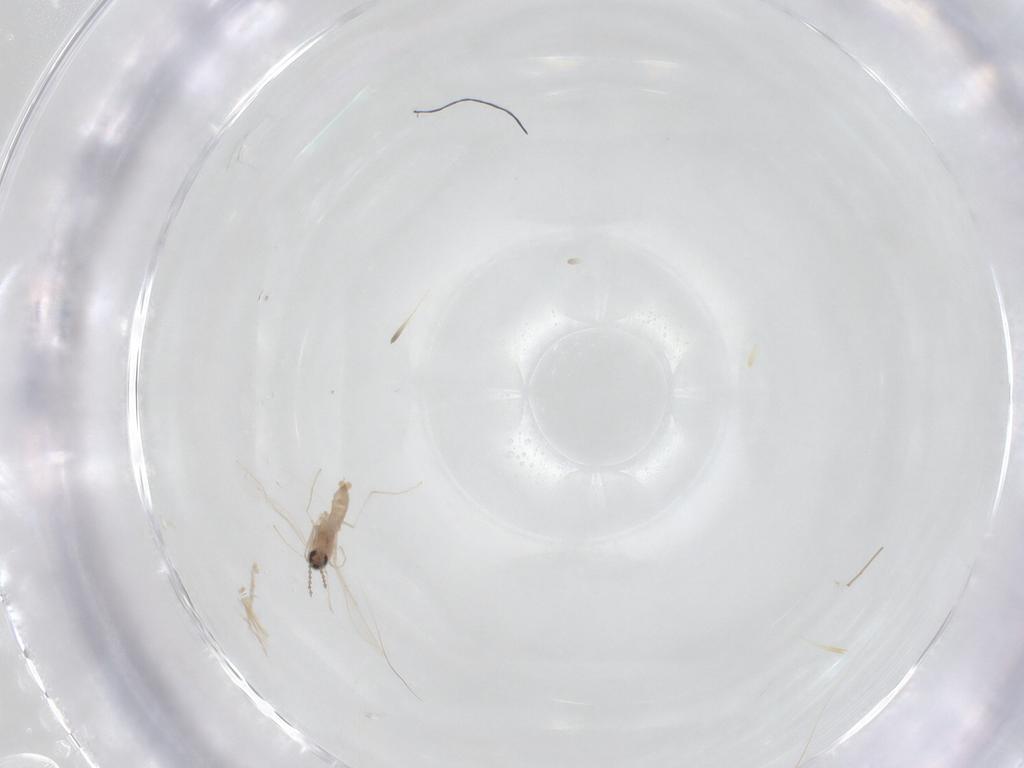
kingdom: Animalia
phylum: Arthropoda
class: Insecta
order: Diptera
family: Cecidomyiidae
